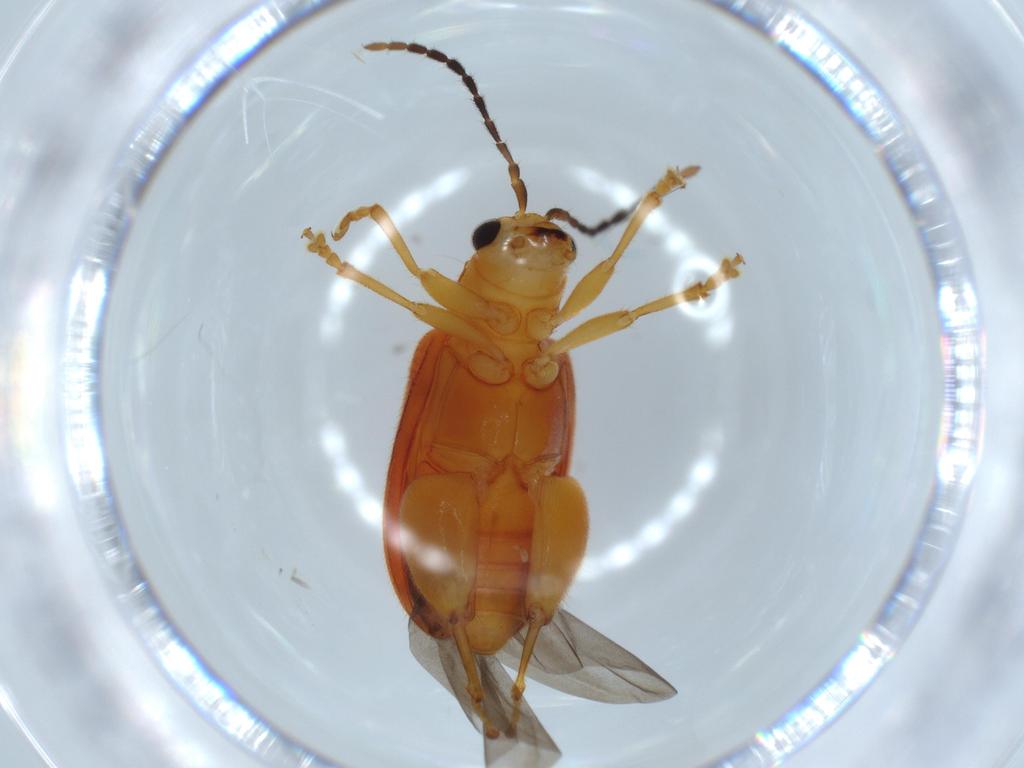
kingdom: Animalia
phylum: Arthropoda
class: Insecta
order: Coleoptera
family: Chrysomelidae
